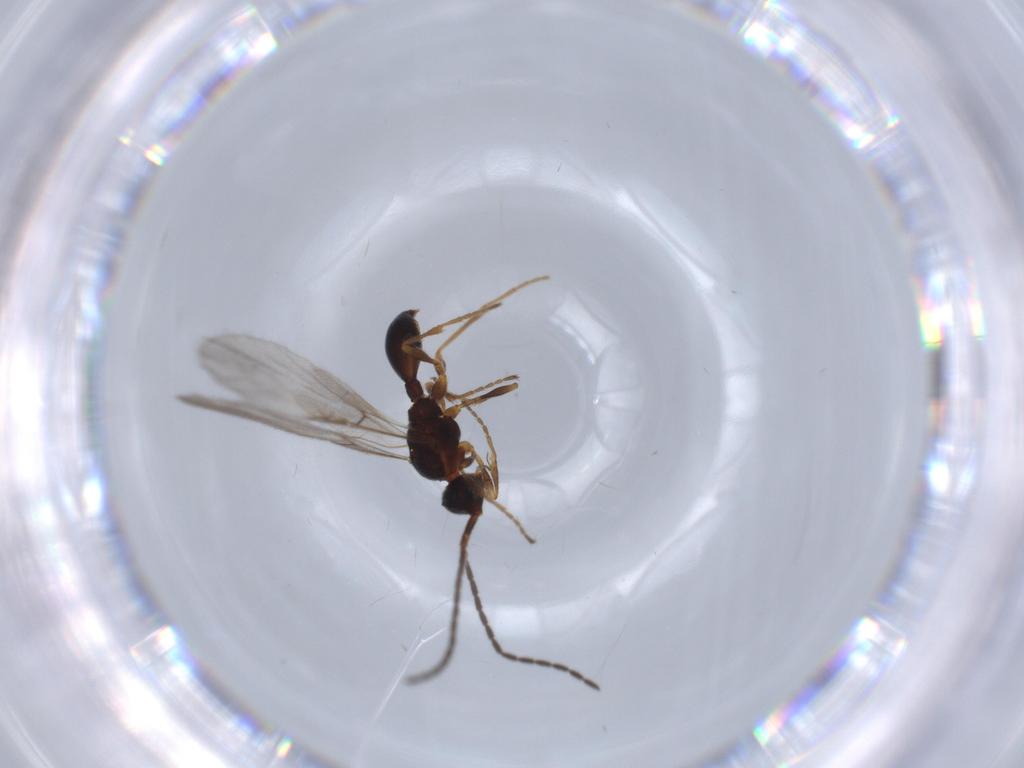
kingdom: Animalia
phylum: Arthropoda
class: Insecta
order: Hymenoptera
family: Diapriidae
